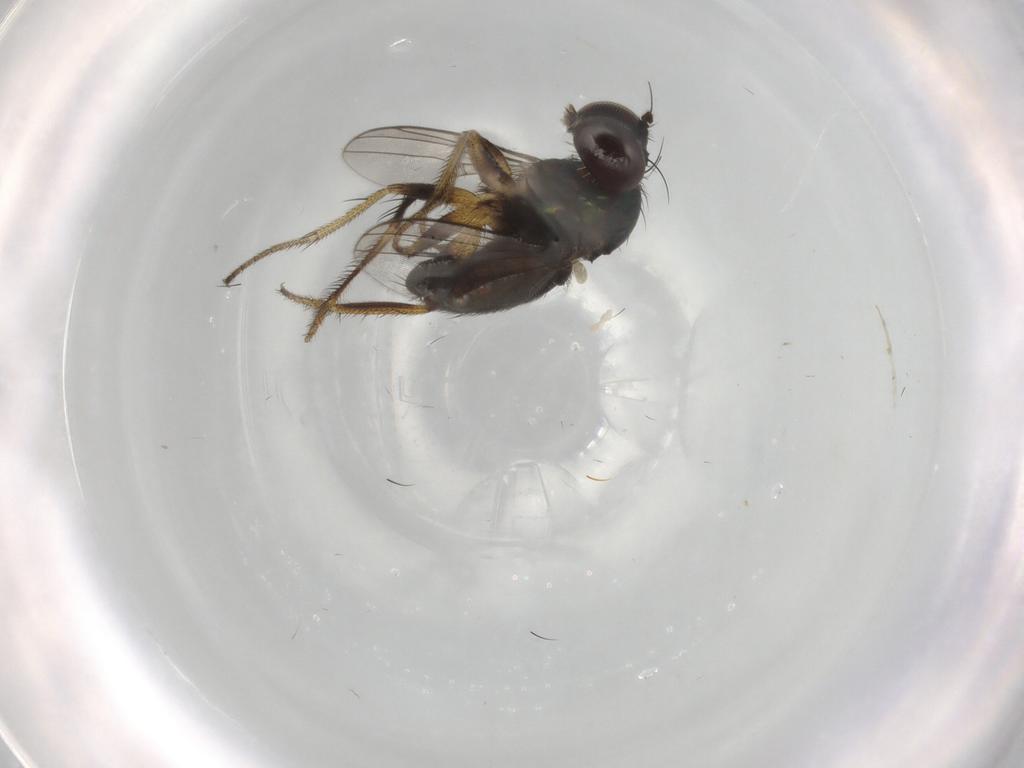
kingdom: Animalia
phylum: Arthropoda
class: Insecta
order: Diptera
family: Dolichopodidae
